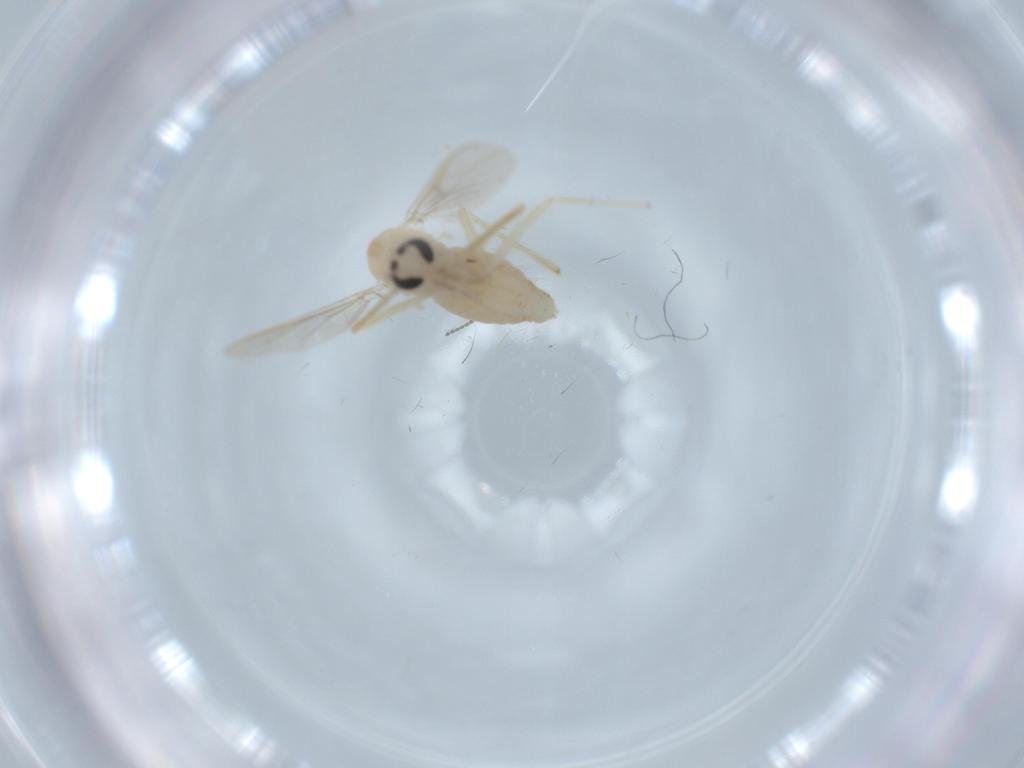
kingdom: Animalia
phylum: Arthropoda
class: Insecta
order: Diptera
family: Chironomidae
